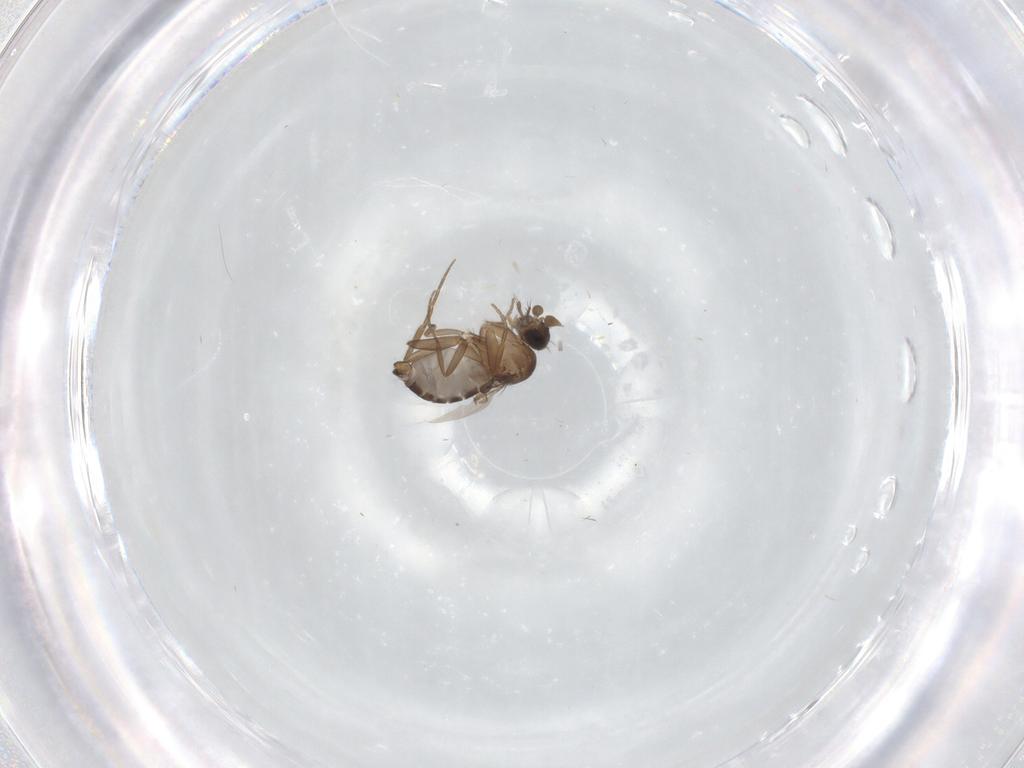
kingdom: Animalia
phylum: Arthropoda
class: Insecta
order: Diptera
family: Phoridae
